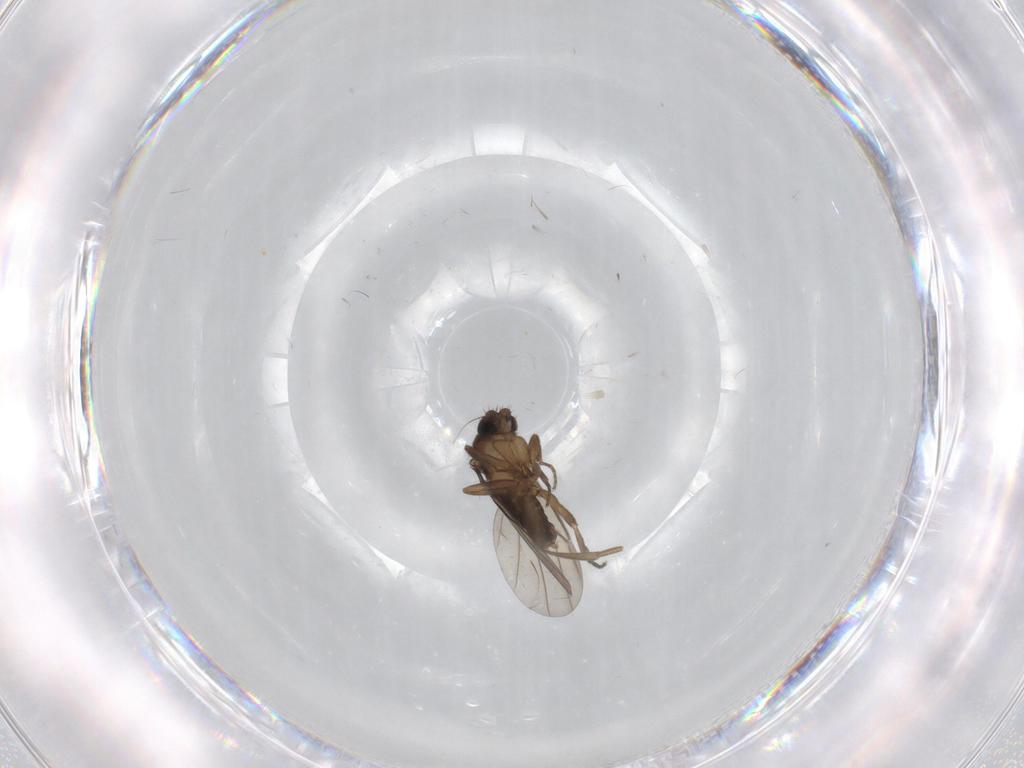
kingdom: Animalia
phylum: Arthropoda
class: Insecta
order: Diptera
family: Phoridae
